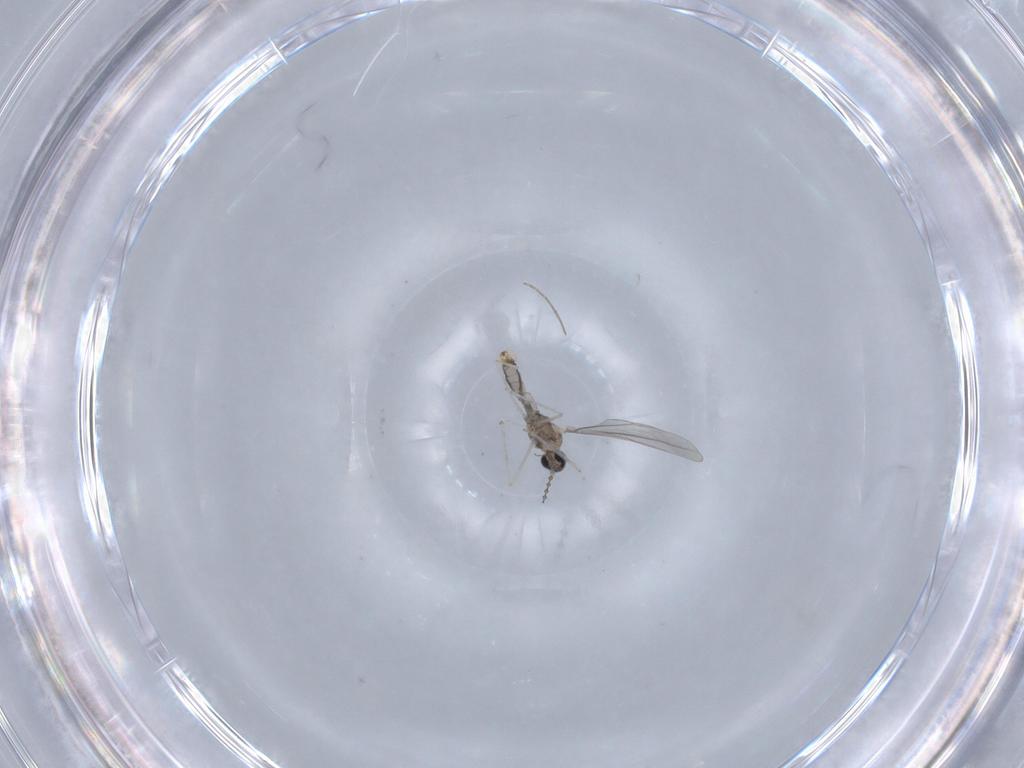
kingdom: Animalia
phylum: Arthropoda
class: Insecta
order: Diptera
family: Cecidomyiidae
